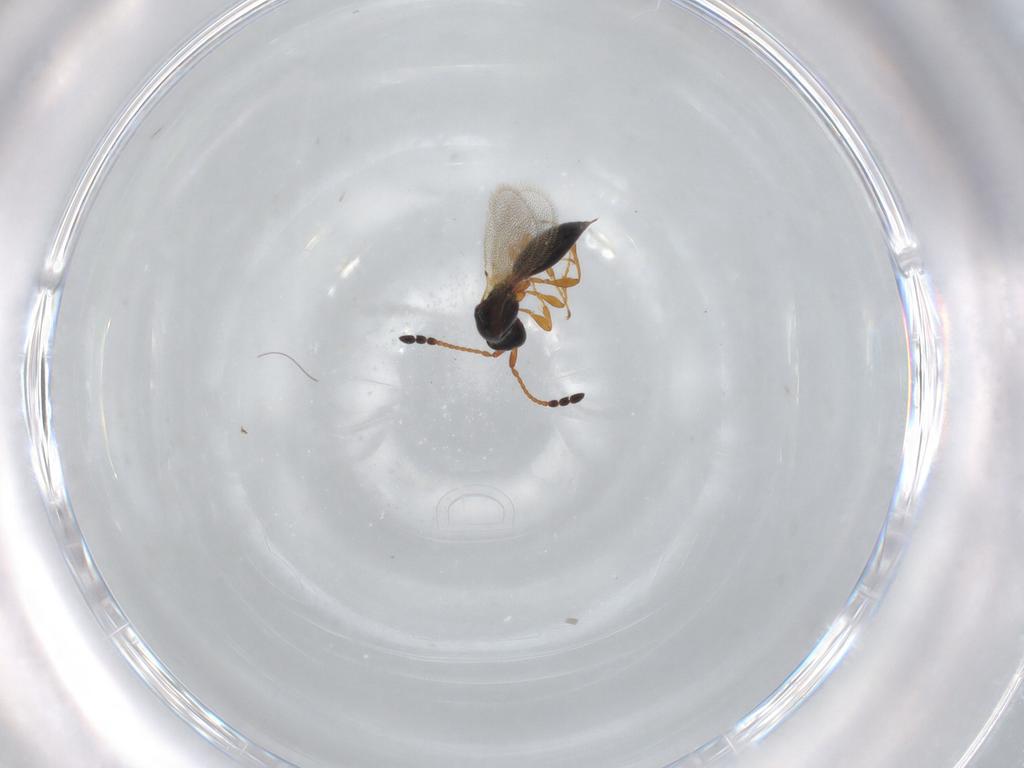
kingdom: Animalia
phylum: Arthropoda
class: Insecta
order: Hymenoptera
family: Diapriidae
